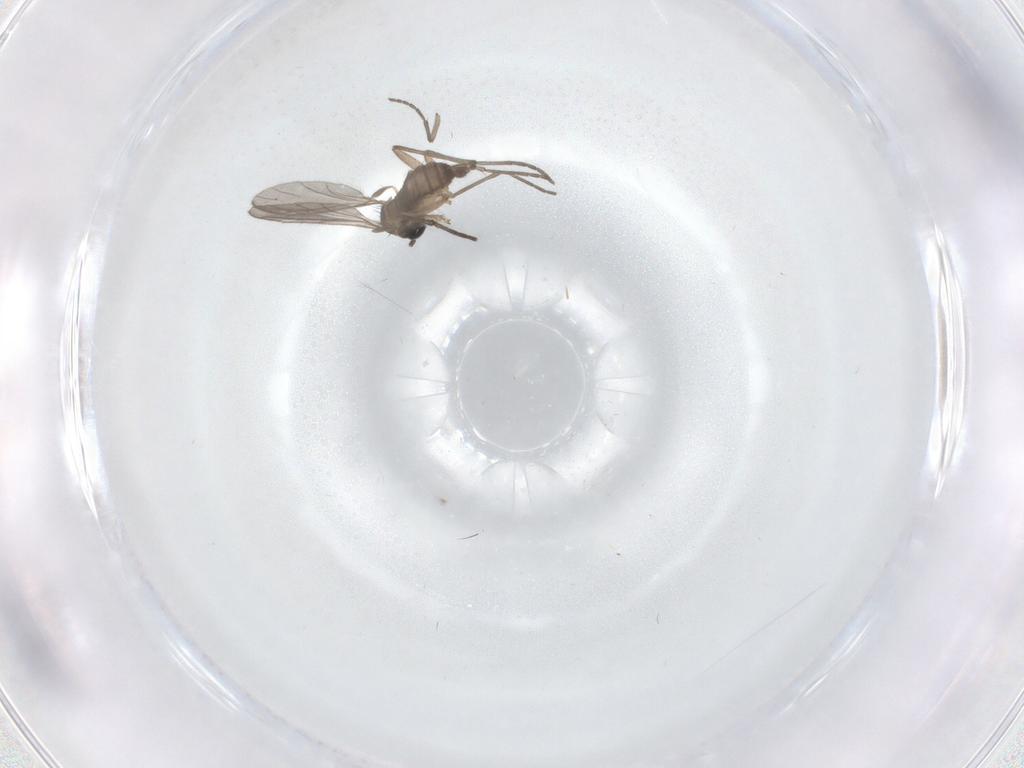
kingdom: Animalia
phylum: Arthropoda
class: Insecta
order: Diptera
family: Sciaridae
